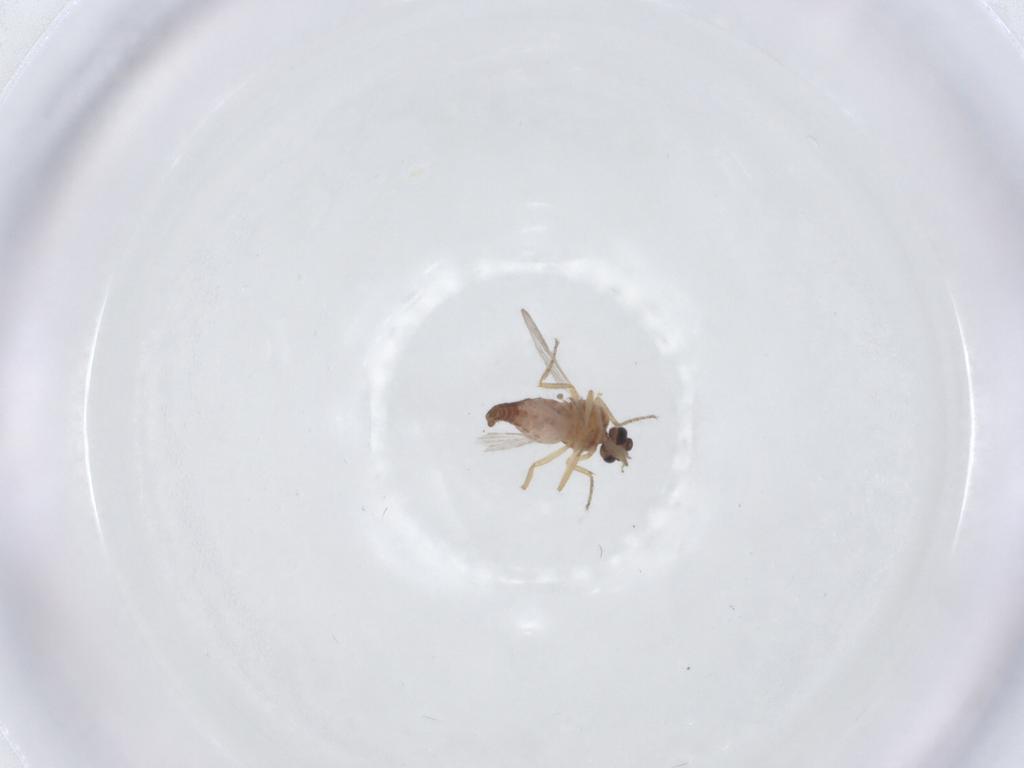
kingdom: Animalia
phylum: Arthropoda
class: Insecta
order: Diptera
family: Ceratopogonidae
